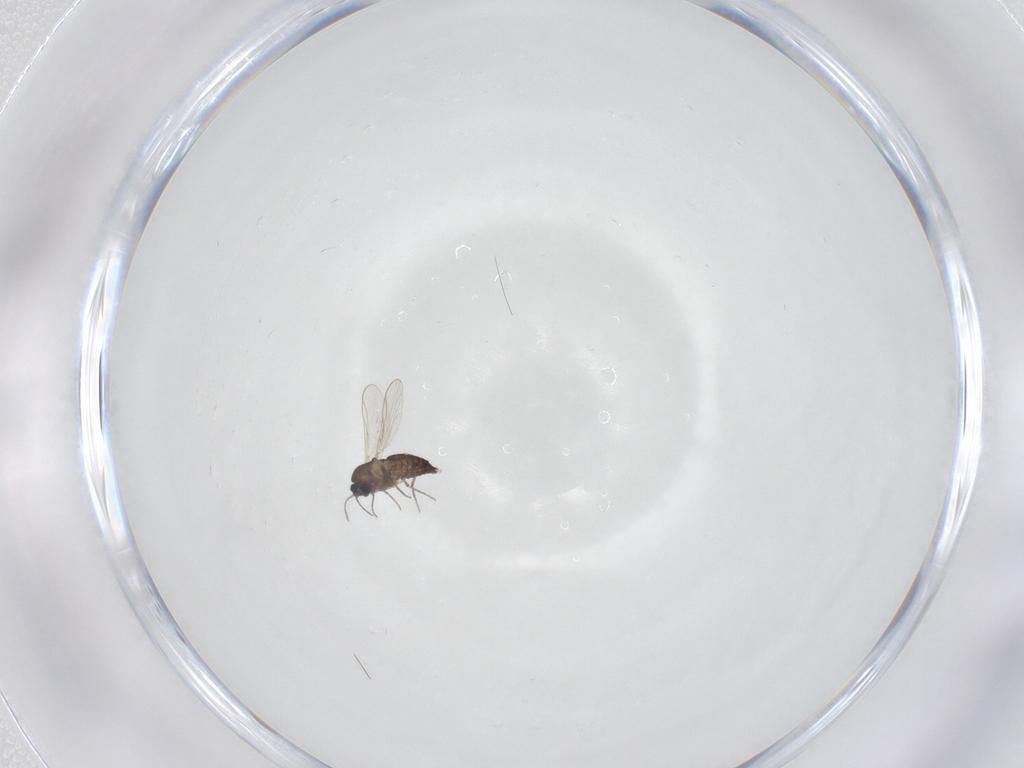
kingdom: Animalia
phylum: Arthropoda
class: Insecta
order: Diptera
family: Chironomidae
